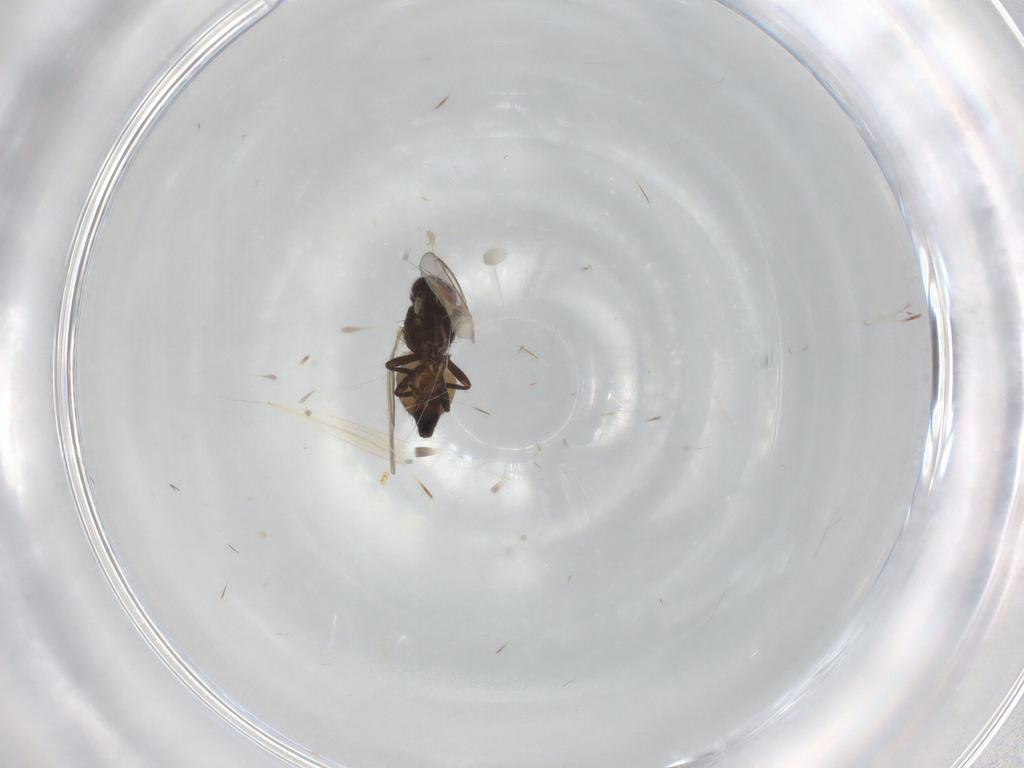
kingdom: Animalia
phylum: Arthropoda
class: Insecta
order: Diptera
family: Agromyzidae
